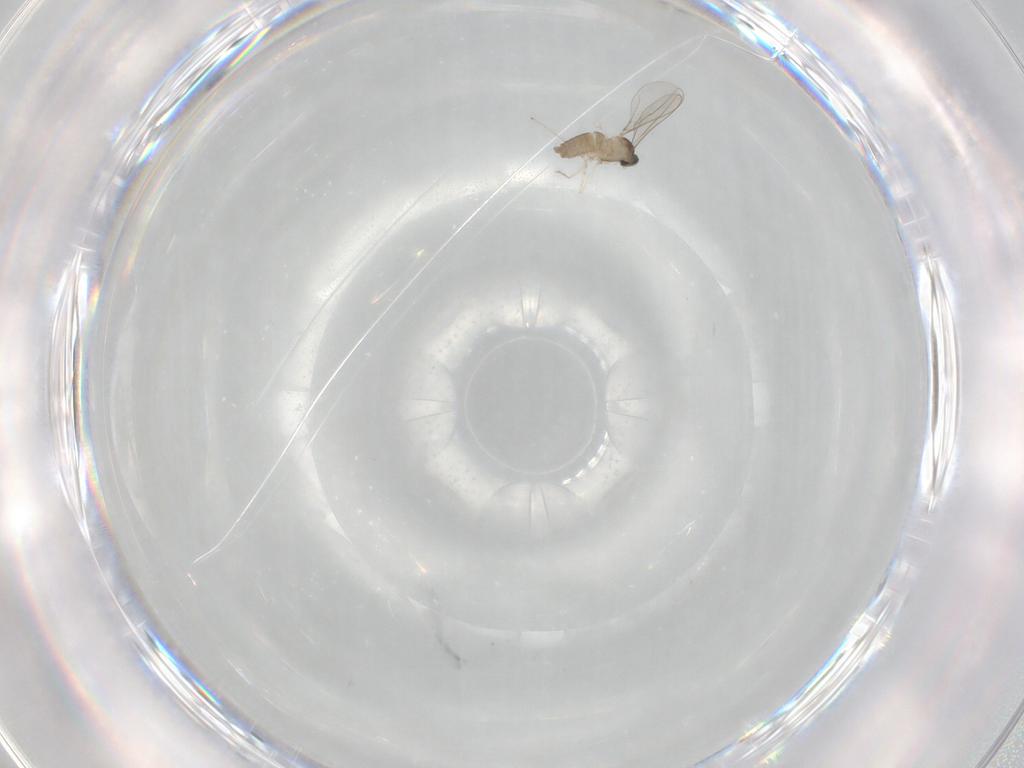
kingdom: Animalia
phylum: Arthropoda
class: Insecta
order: Diptera
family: Cecidomyiidae
